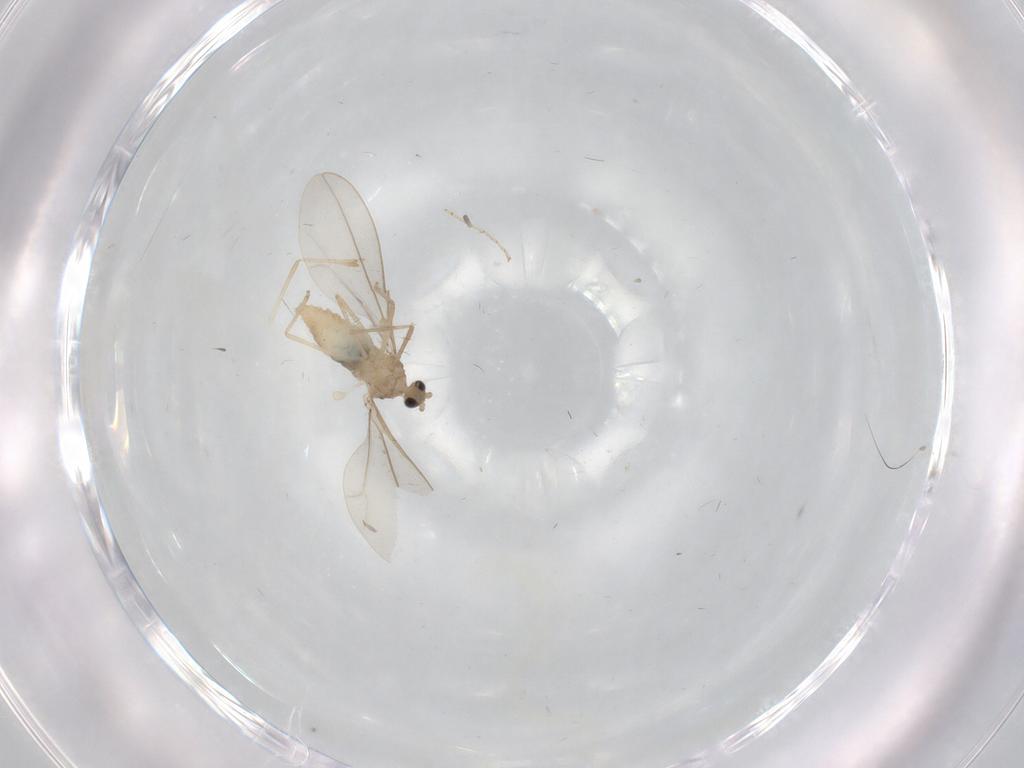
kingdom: Animalia
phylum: Arthropoda
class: Insecta
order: Diptera
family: Cecidomyiidae
